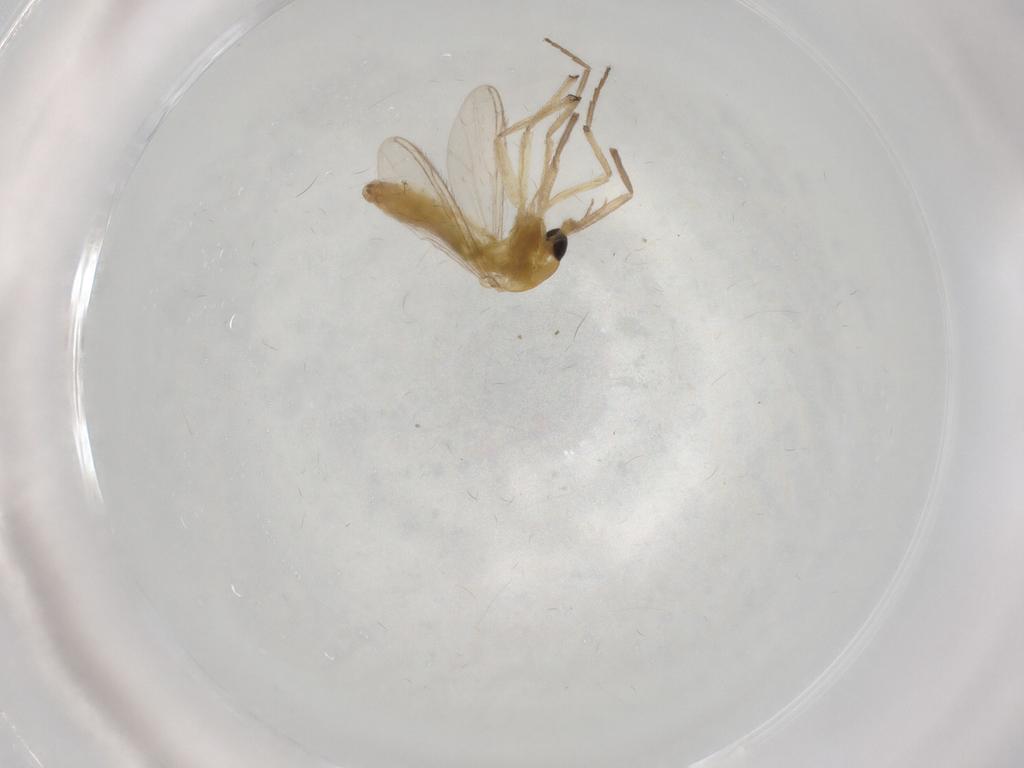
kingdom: Animalia
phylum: Arthropoda
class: Insecta
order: Diptera
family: Chironomidae
